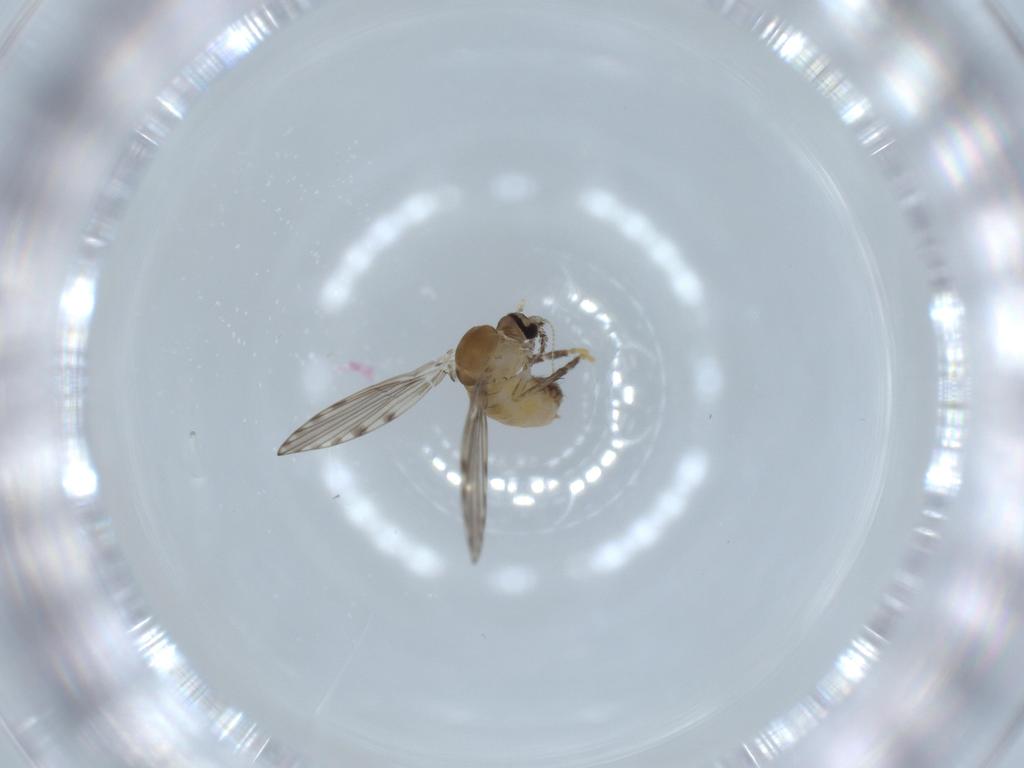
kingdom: Animalia
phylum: Arthropoda
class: Insecta
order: Diptera
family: Psychodidae
